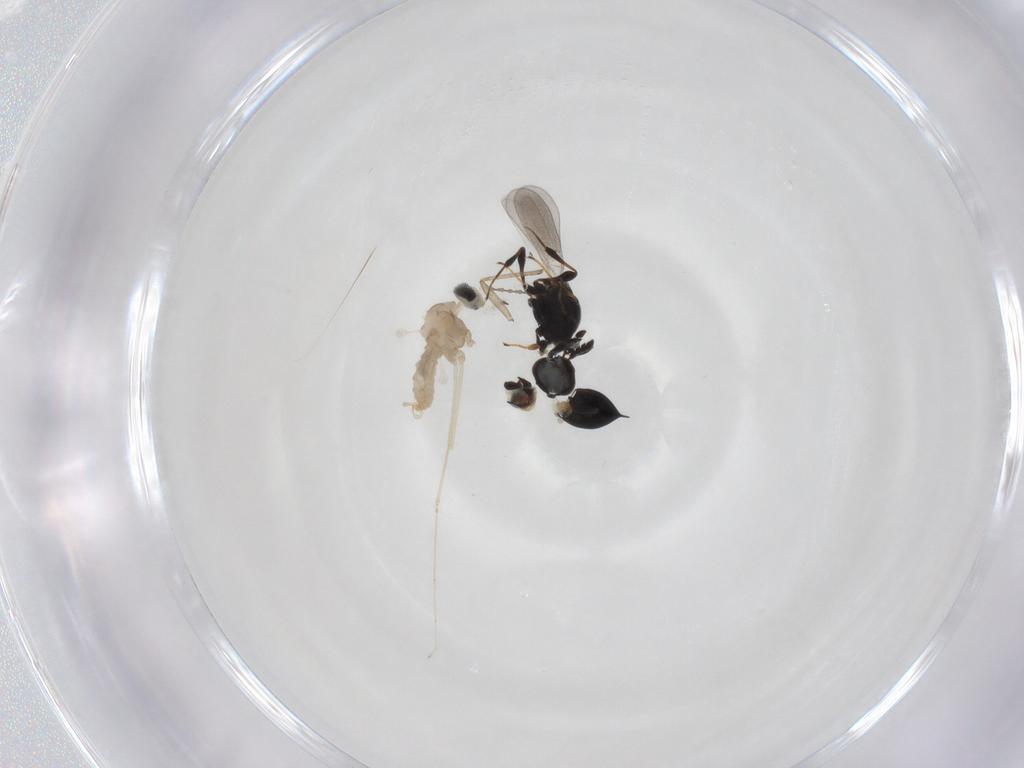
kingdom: Animalia
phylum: Arthropoda
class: Insecta
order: Diptera
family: Cecidomyiidae
